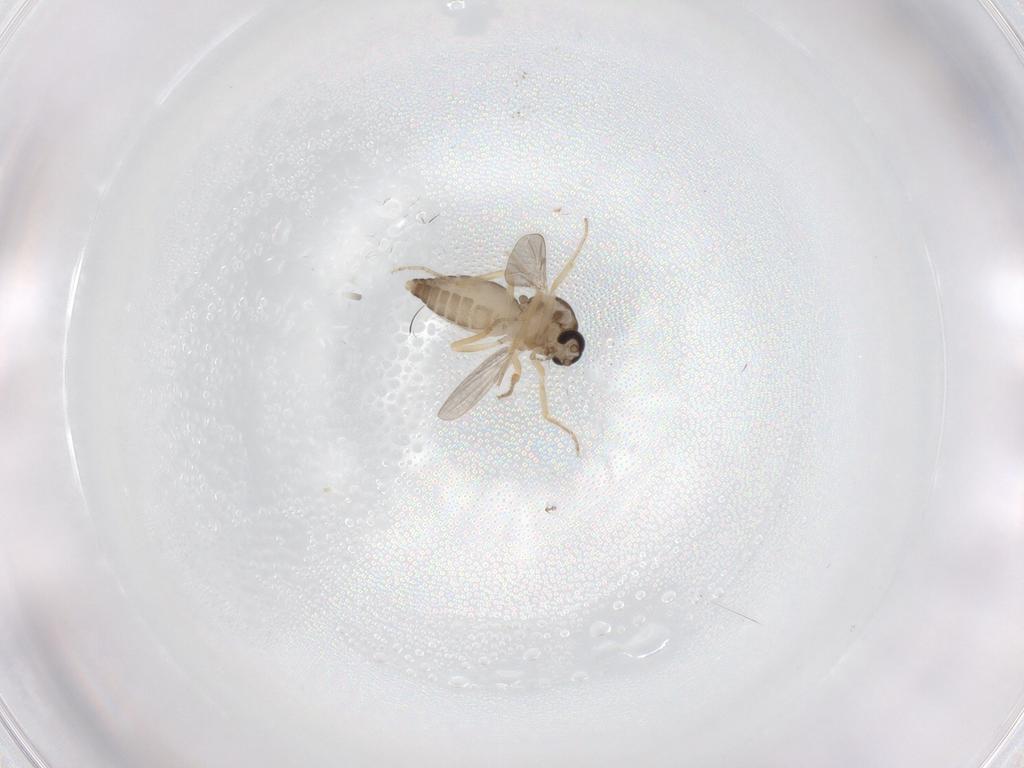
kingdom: Animalia
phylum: Arthropoda
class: Insecta
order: Diptera
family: Ceratopogonidae
